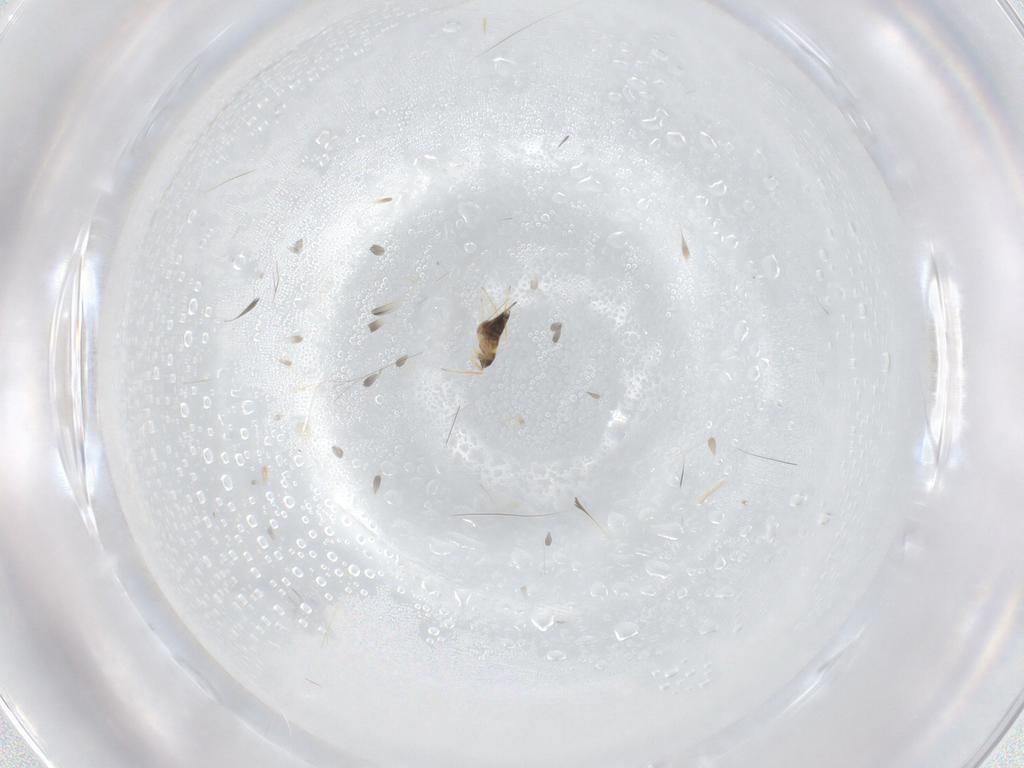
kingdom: Animalia
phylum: Arthropoda
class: Insecta
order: Hymenoptera
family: Mymaridae
